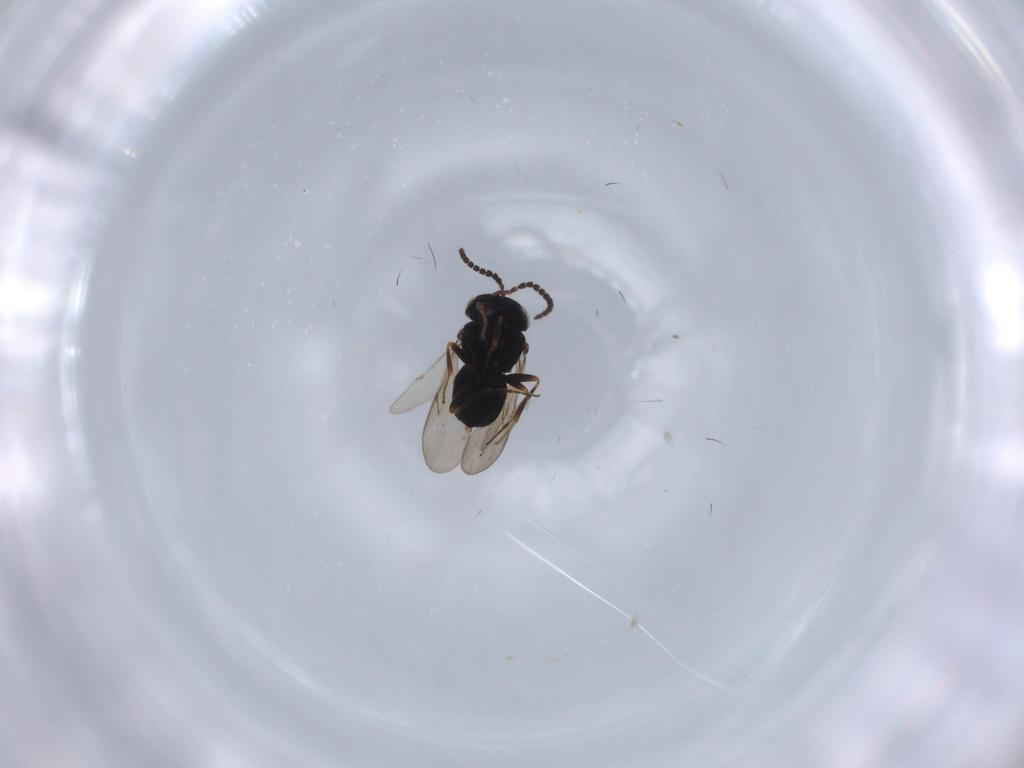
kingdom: Animalia
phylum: Arthropoda
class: Insecta
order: Hymenoptera
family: Scelionidae
